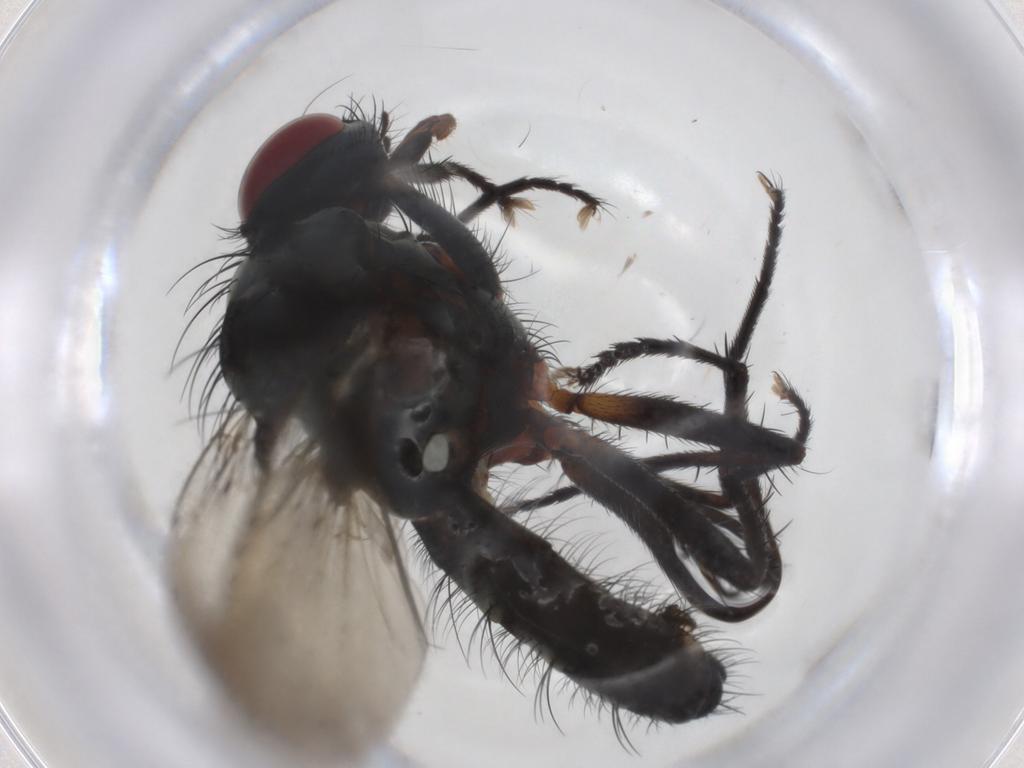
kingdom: Animalia
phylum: Arthropoda
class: Insecta
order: Diptera
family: Anthomyiidae
